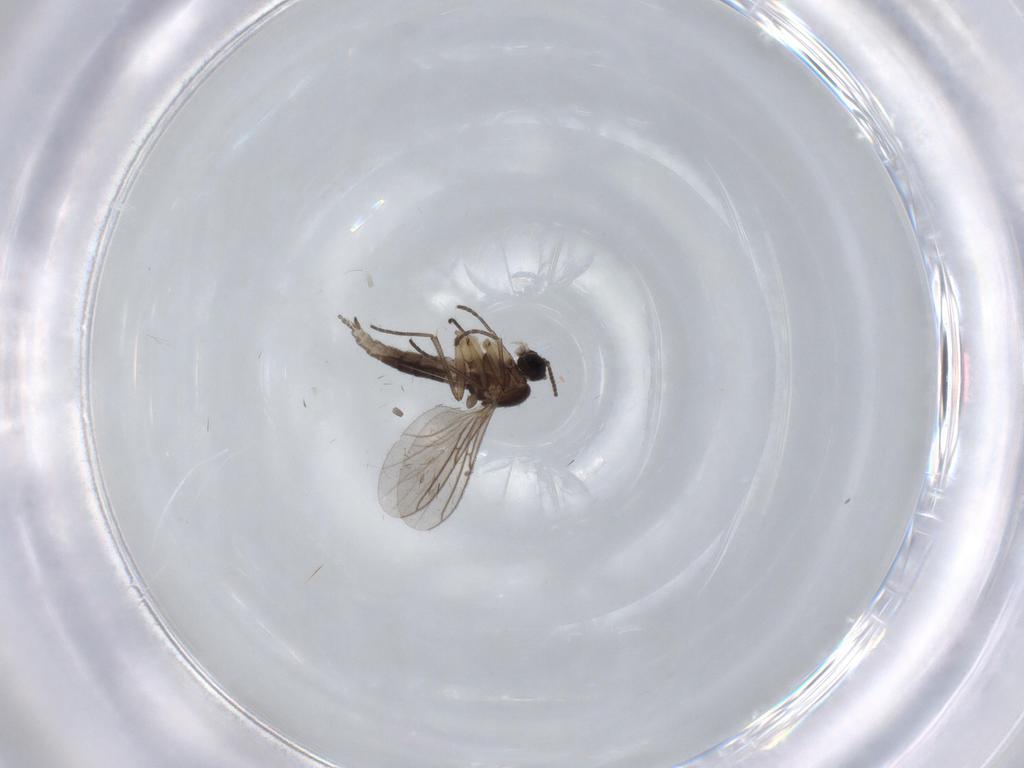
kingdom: Animalia
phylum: Arthropoda
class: Insecta
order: Diptera
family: Sciaridae
